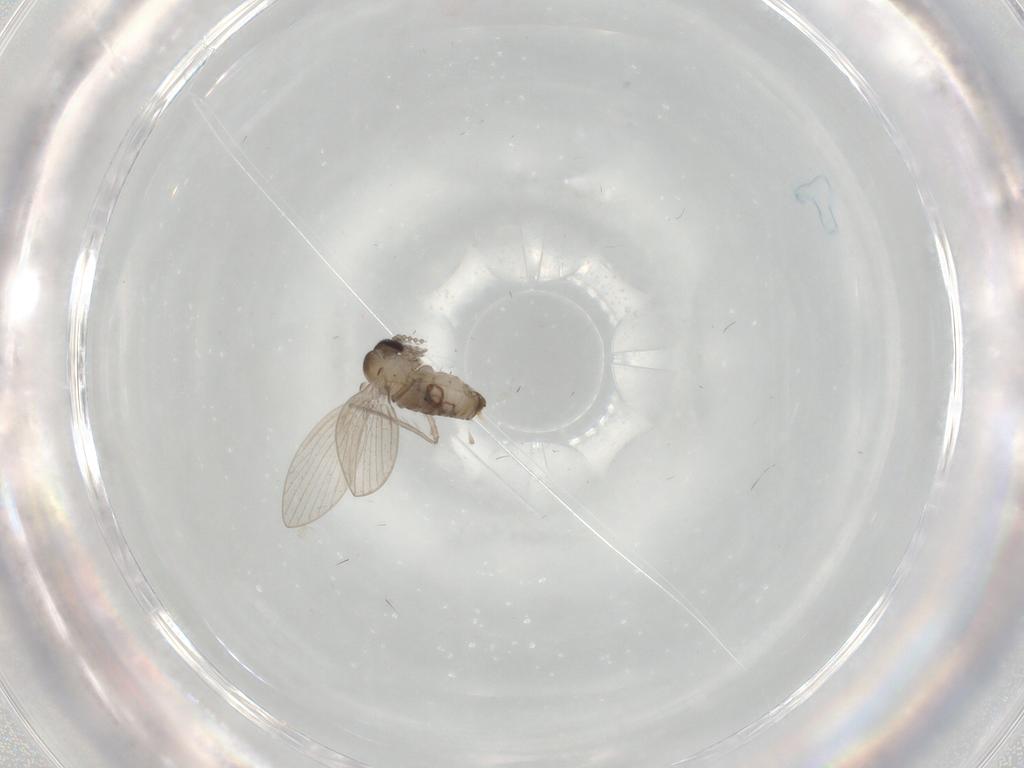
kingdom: Animalia
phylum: Arthropoda
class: Insecta
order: Diptera
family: Psychodidae
